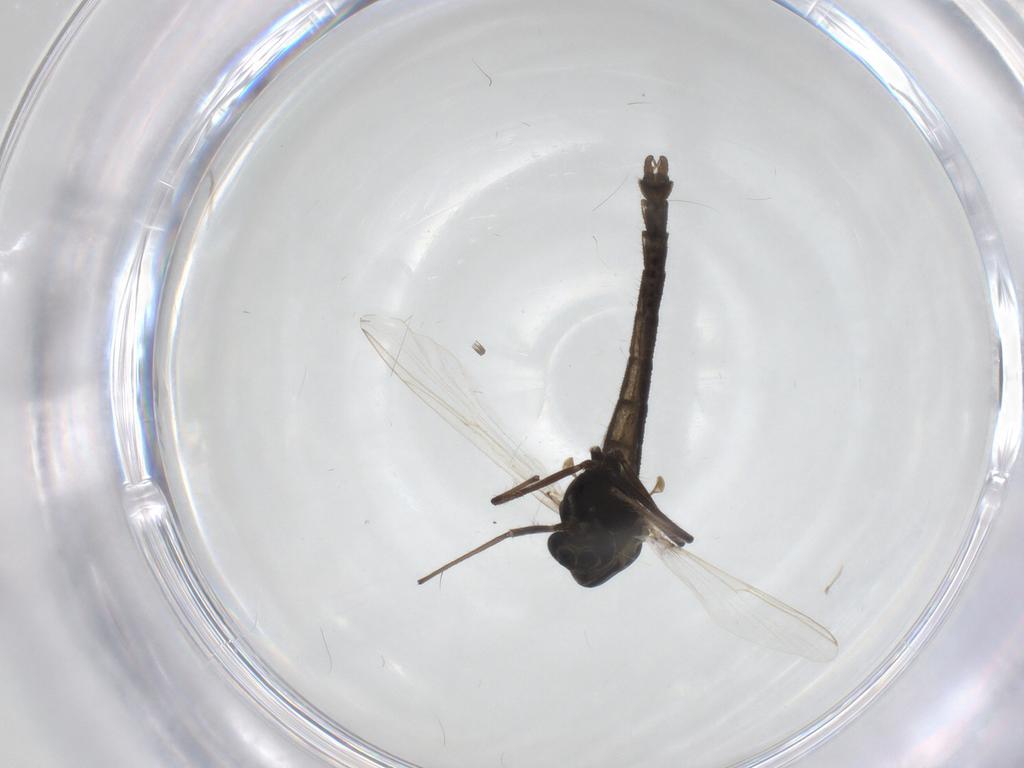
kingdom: Animalia
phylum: Arthropoda
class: Insecta
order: Diptera
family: Chironomidae
